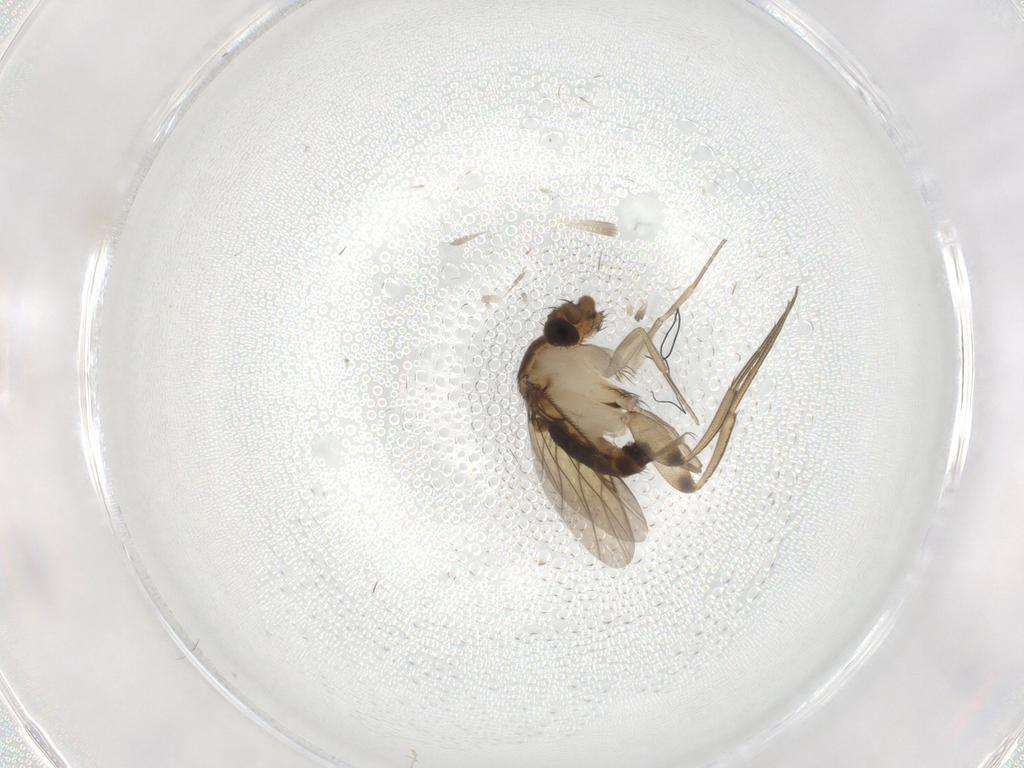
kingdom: Animalia
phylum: Arthropoda
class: Insecta
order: Diptera
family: Phoridae
